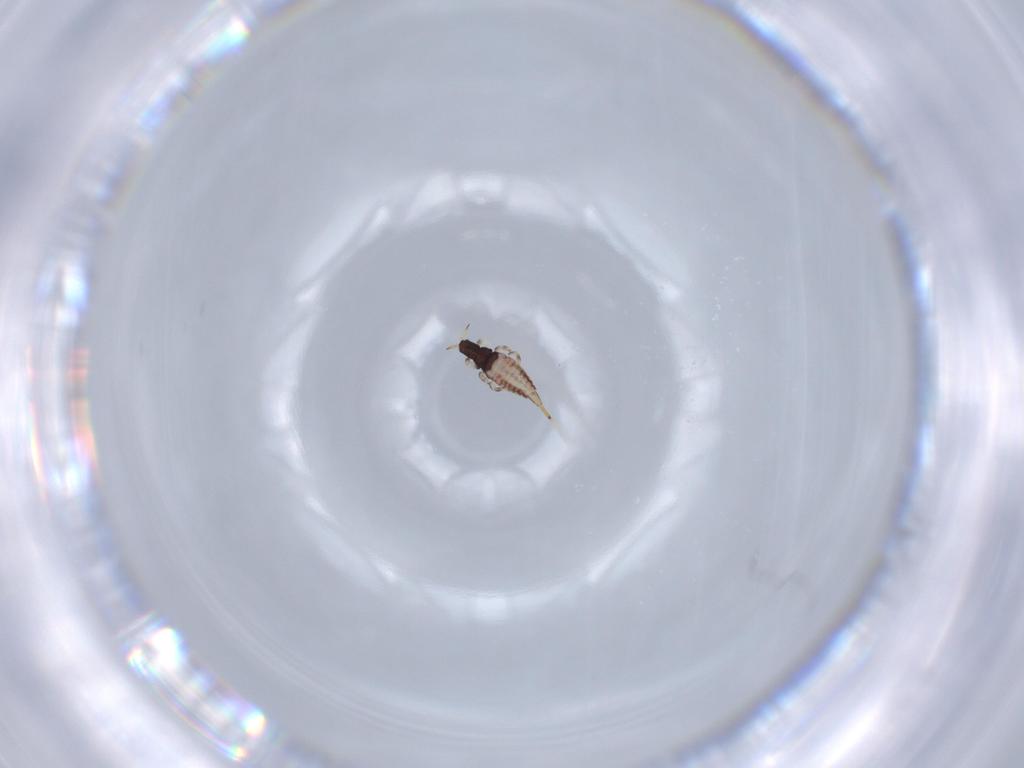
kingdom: Animalia
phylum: Arthropoda
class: Insecta
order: Thysanoptera
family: Phlaeothripidae
